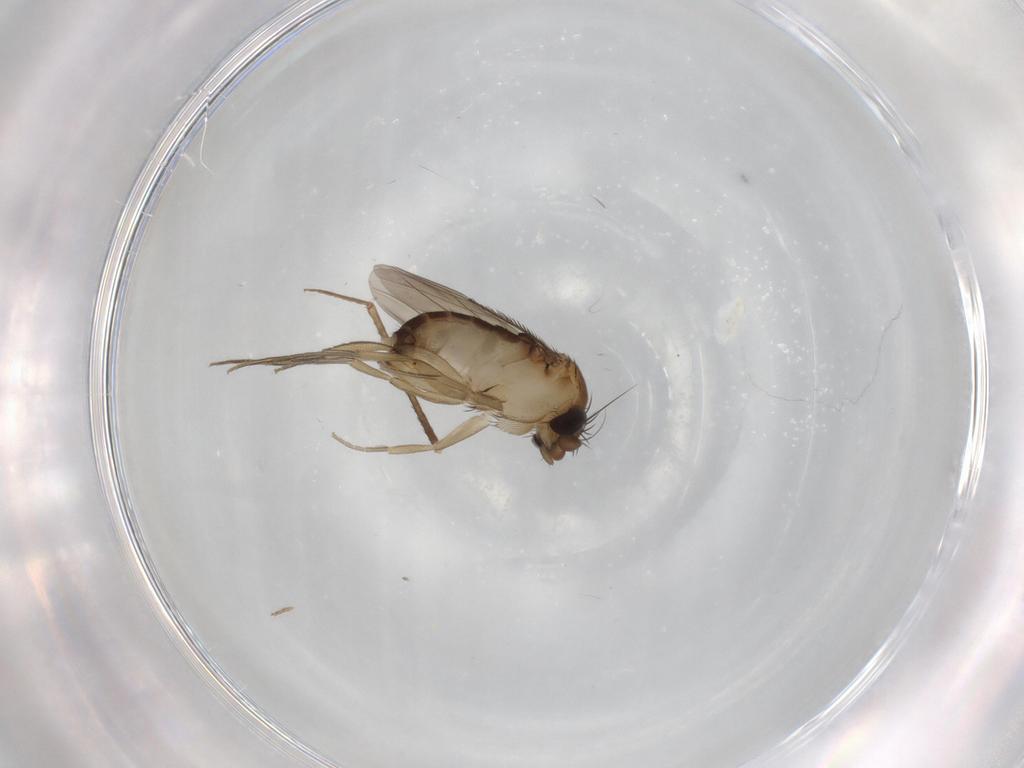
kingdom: Animalia
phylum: Arthropoda
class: Insecta
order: Diptera
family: Phoridae
